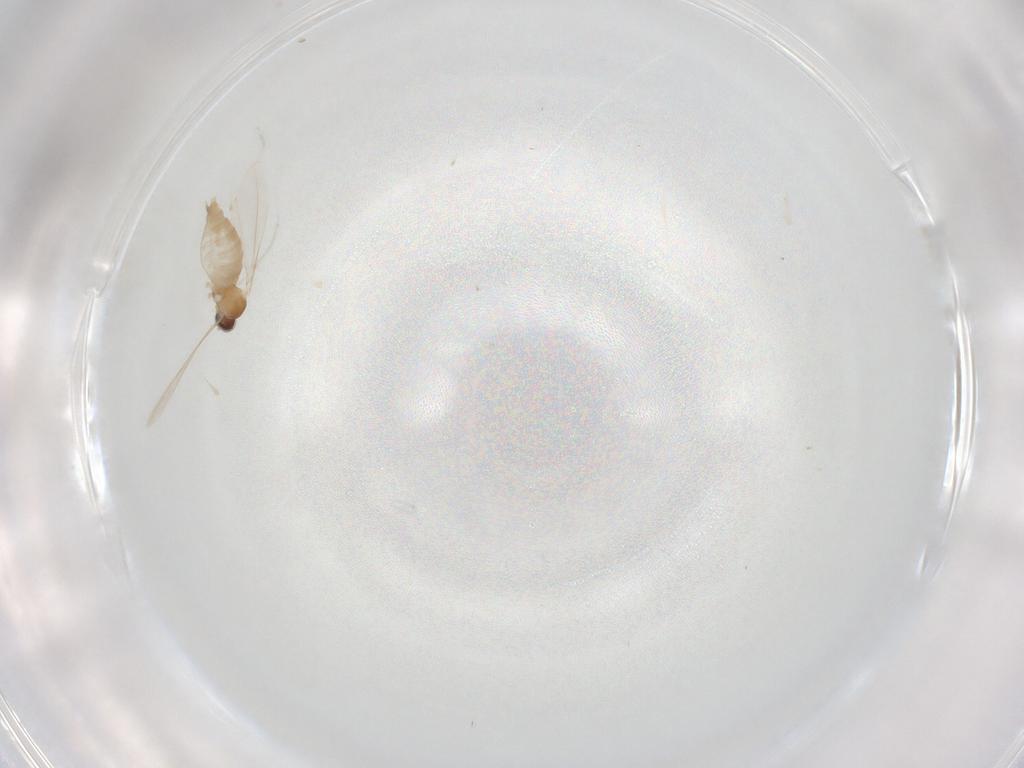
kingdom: Animalia
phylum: Arthropoda
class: Insecta
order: Diptera
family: Cecidomyiidae
